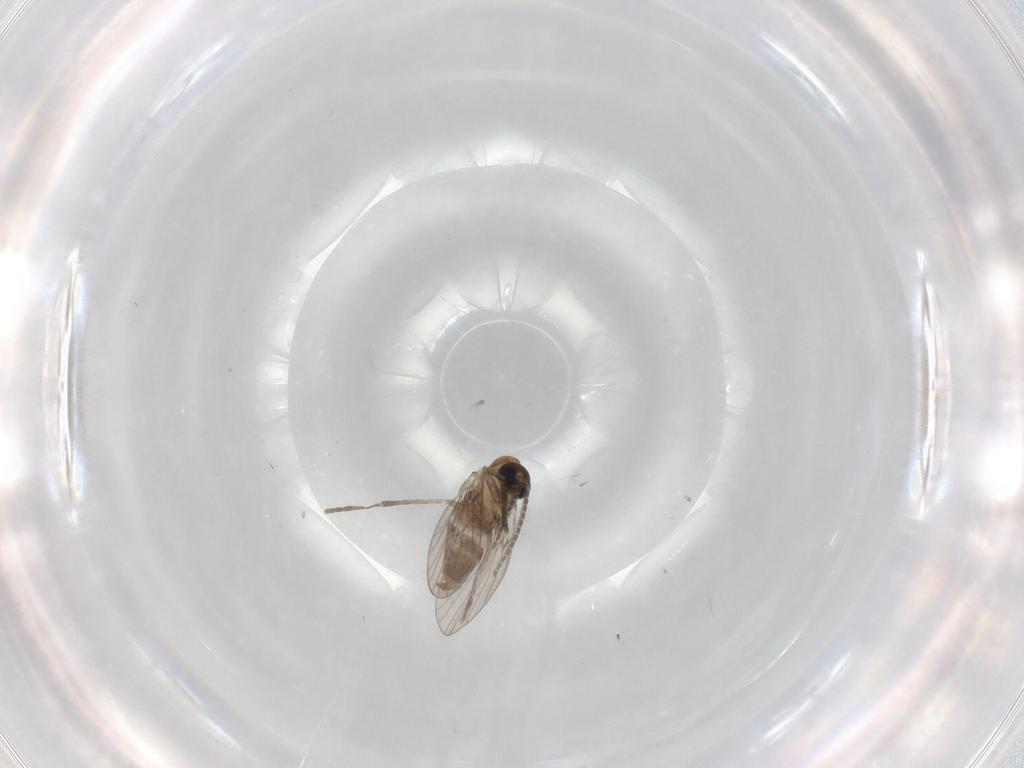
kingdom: Animalia
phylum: Arthropoda
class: Insecta
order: Diptera
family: Psychodidae
